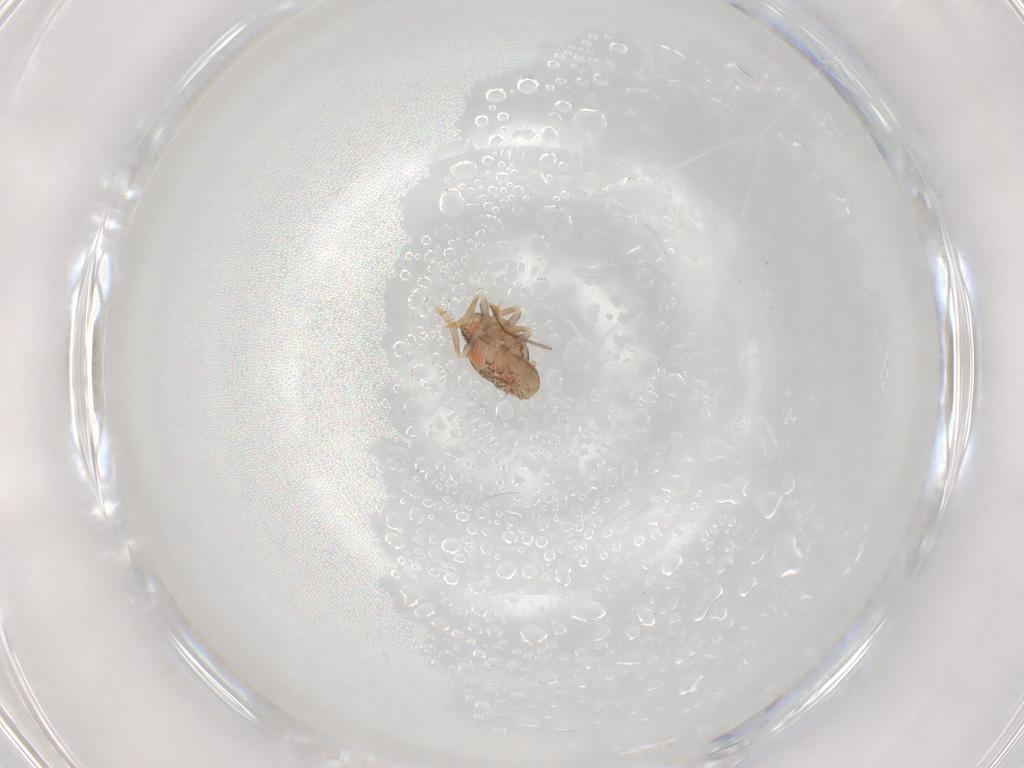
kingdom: Animalia
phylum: Arthropoda
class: Insecta
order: Hemiptera
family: Flatidae
